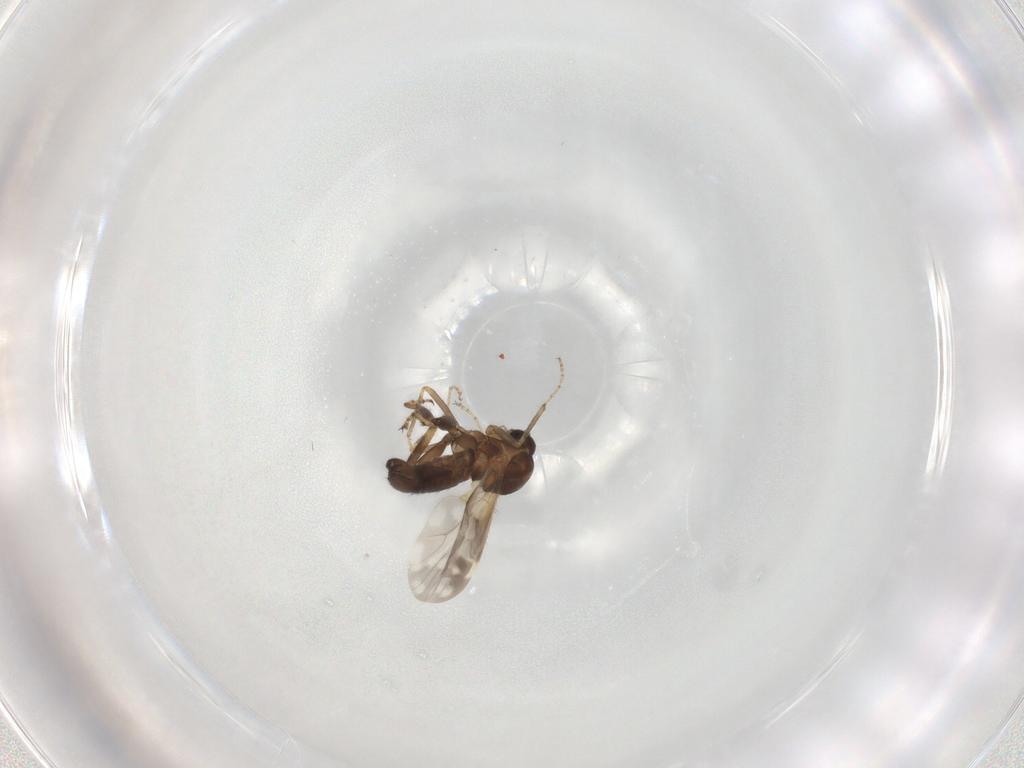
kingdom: Animalia
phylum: Arthropoda
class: Insecta
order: Diptera
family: Ceratopogonidae
